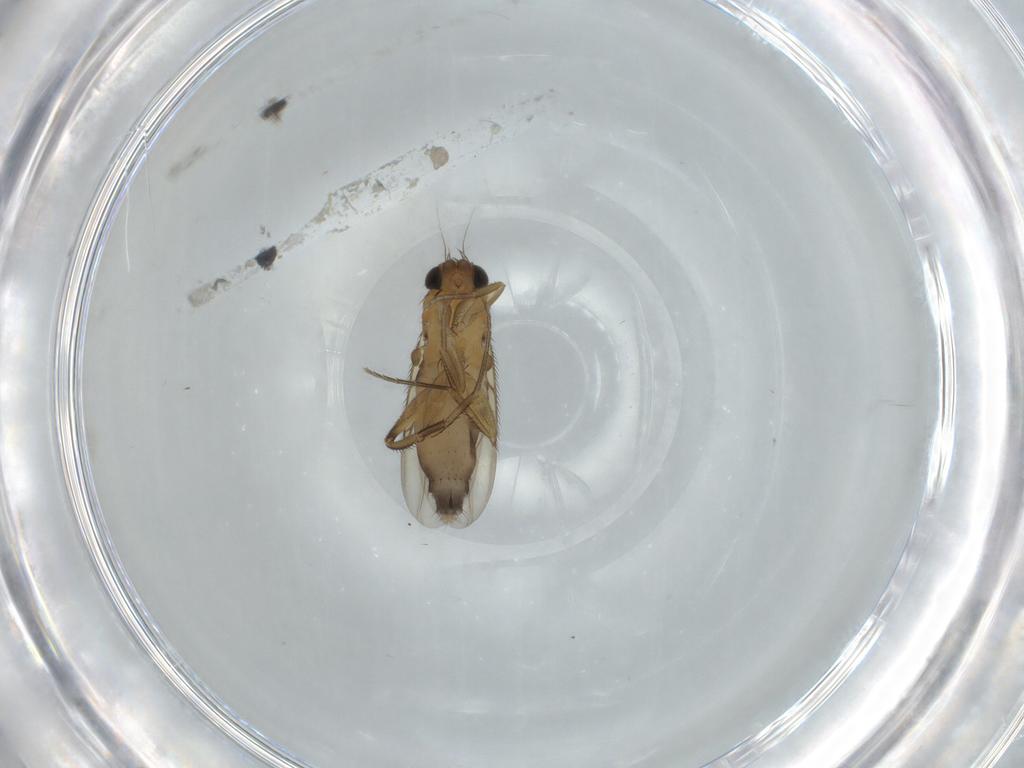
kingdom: Animalia
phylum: Arthropoda
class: Insecta
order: Diptera
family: Phoridae
